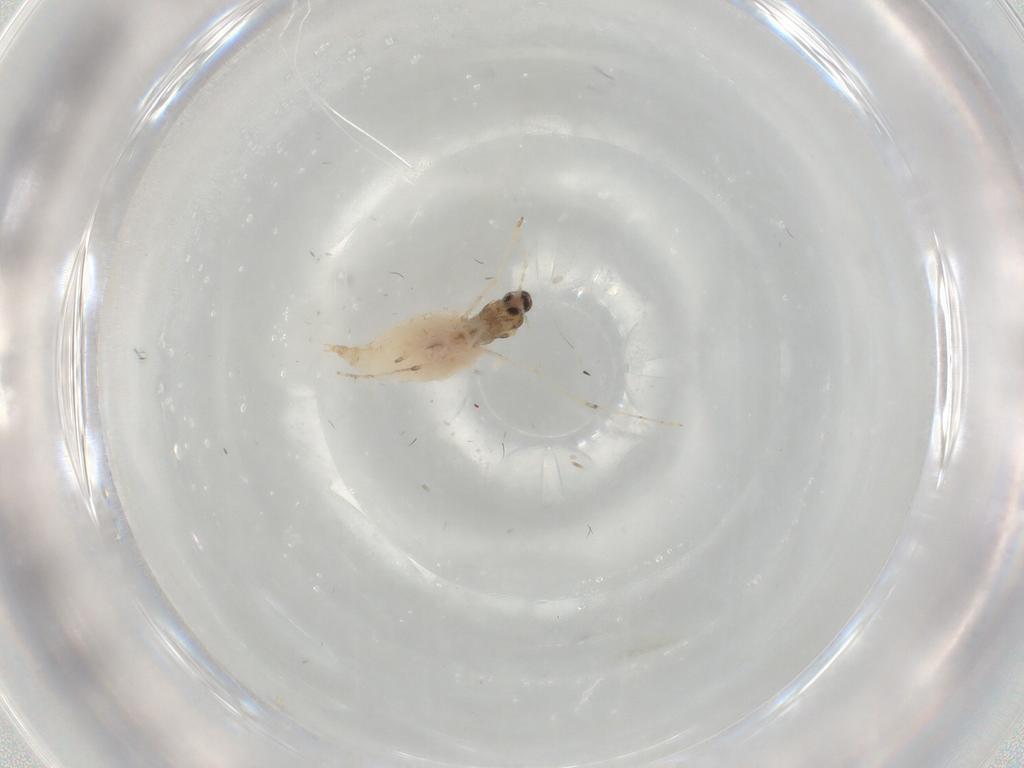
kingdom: Animalia
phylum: Arthropoda
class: Insecta
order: Diptera
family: Cecidomyiidae
